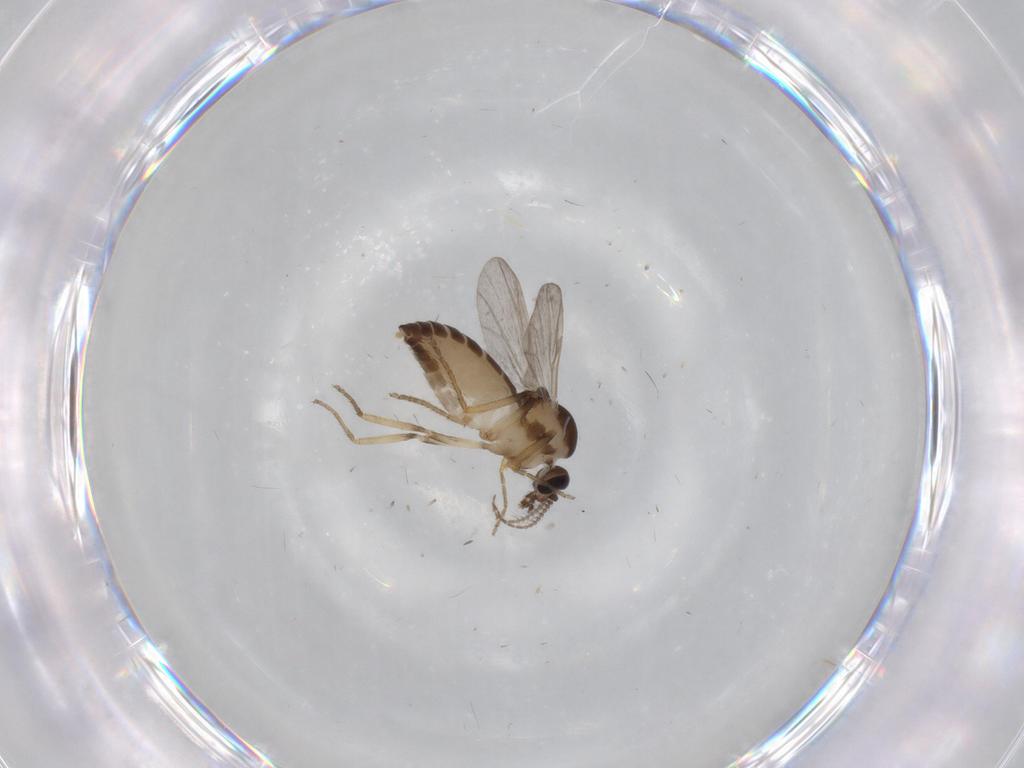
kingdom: Animalia
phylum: Arthropoda
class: Insecta
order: Diptera
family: Ceratopogonidae
